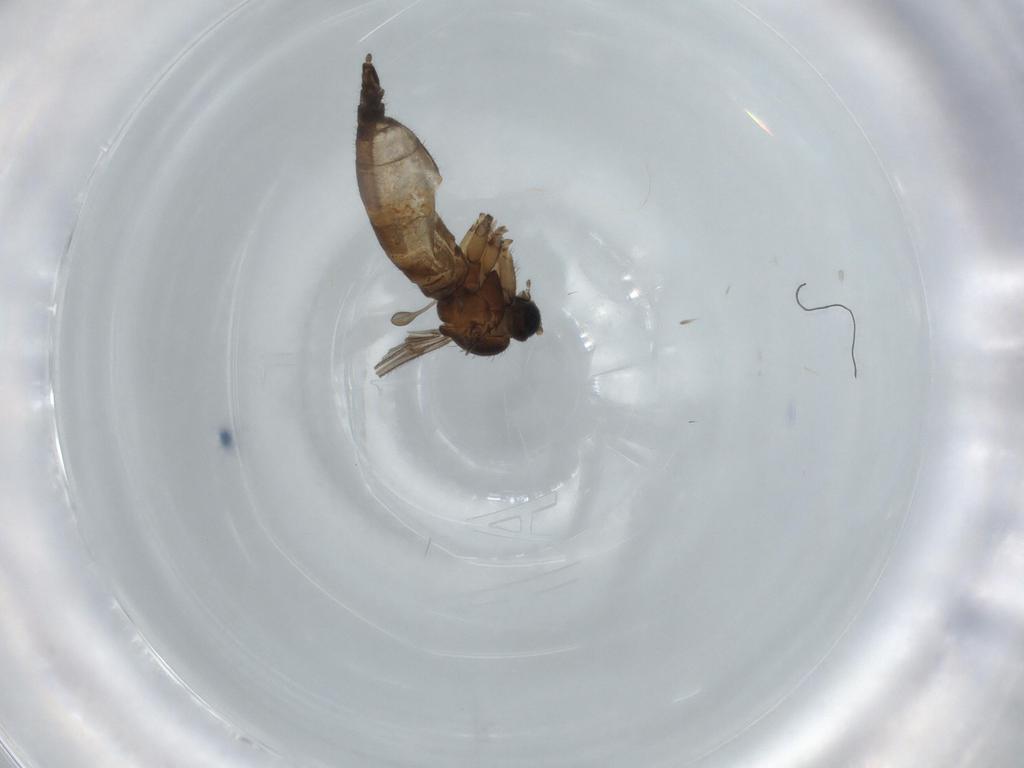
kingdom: Animalia
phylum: Arthropoda
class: Insecta
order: Diptera
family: Sciaridae
